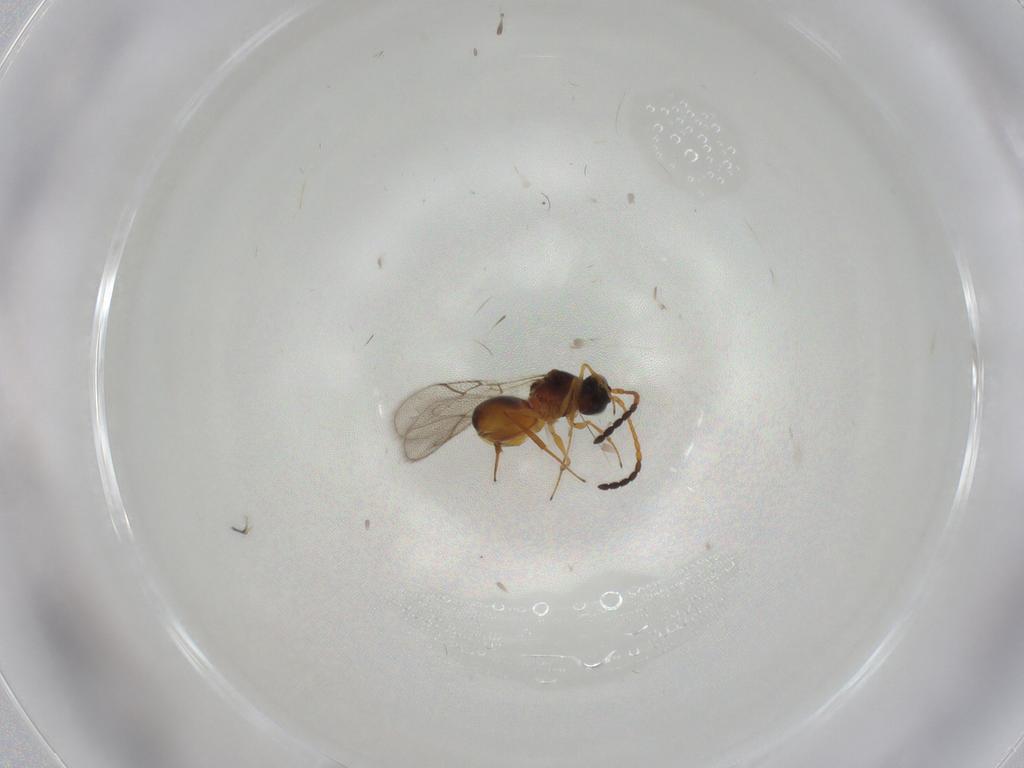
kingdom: Animalia
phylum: Arthropoda
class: Insecta
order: Hymenoptera
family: Figitidae
